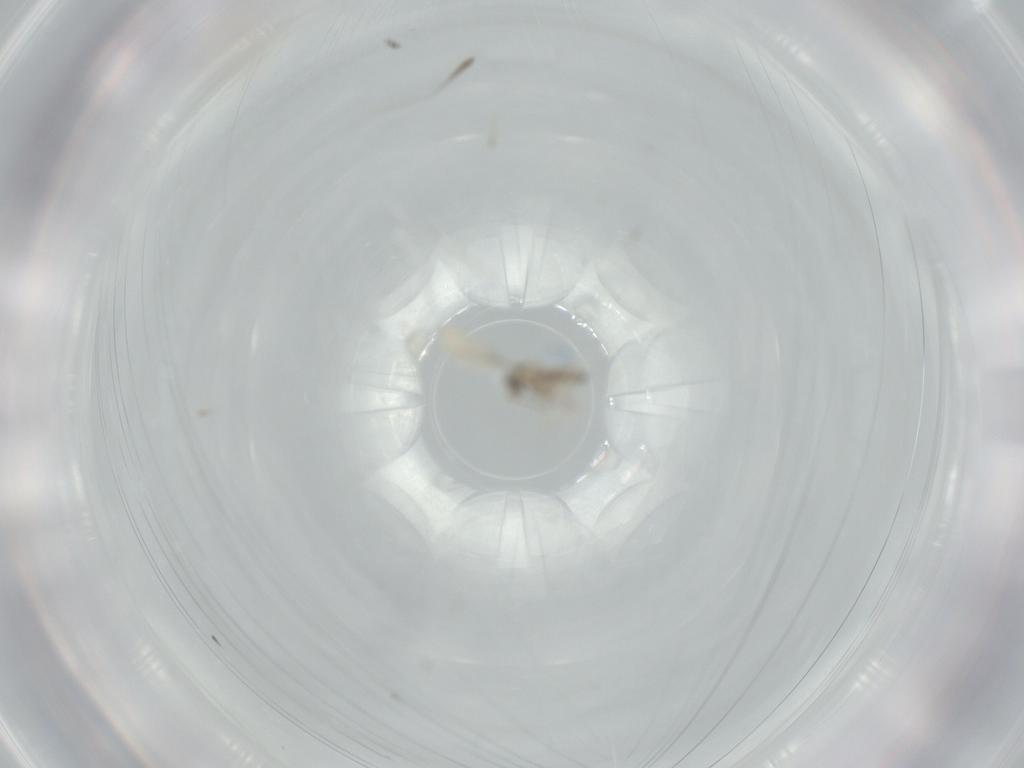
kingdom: Animalia
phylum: Arthropoda
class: Insecta
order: Diptera
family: Cecidomyiidae
